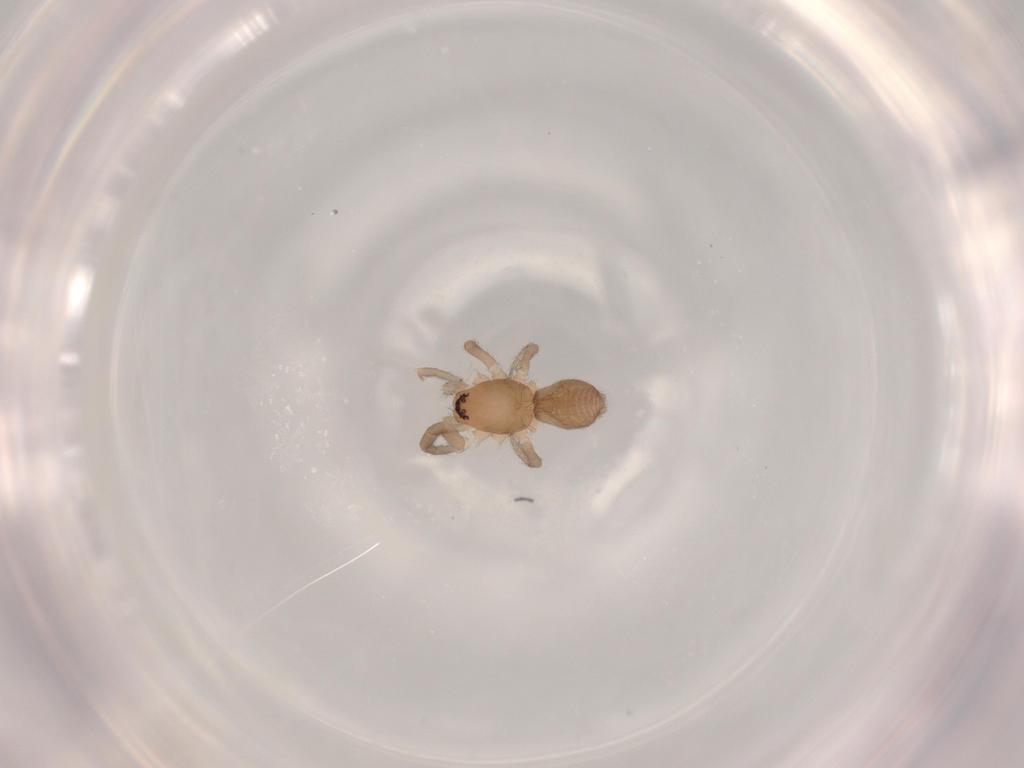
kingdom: Animalia
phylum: Arthropoda
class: Arachnida
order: Araneae
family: Gnaphosidae
